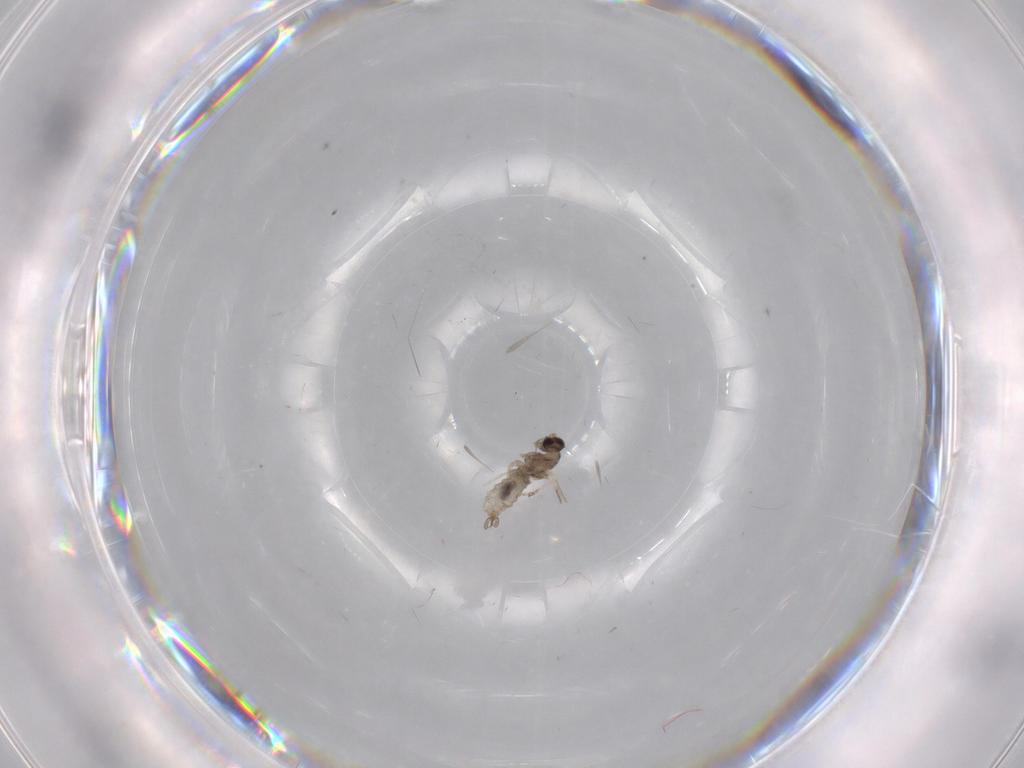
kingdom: Animalia
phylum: Arthropoda
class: Insecta
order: Diptera
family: Cecidomyiidae
